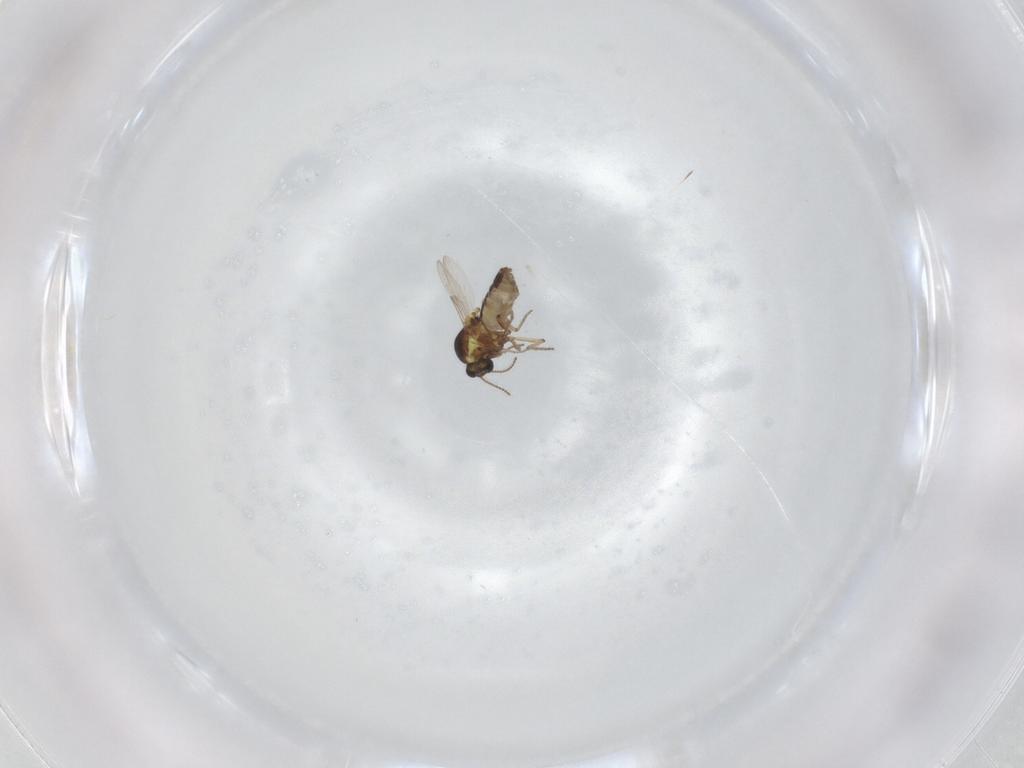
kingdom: Animalia
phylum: Arthropoda
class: Insecta
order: Diptera
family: Ceratopogonidae
